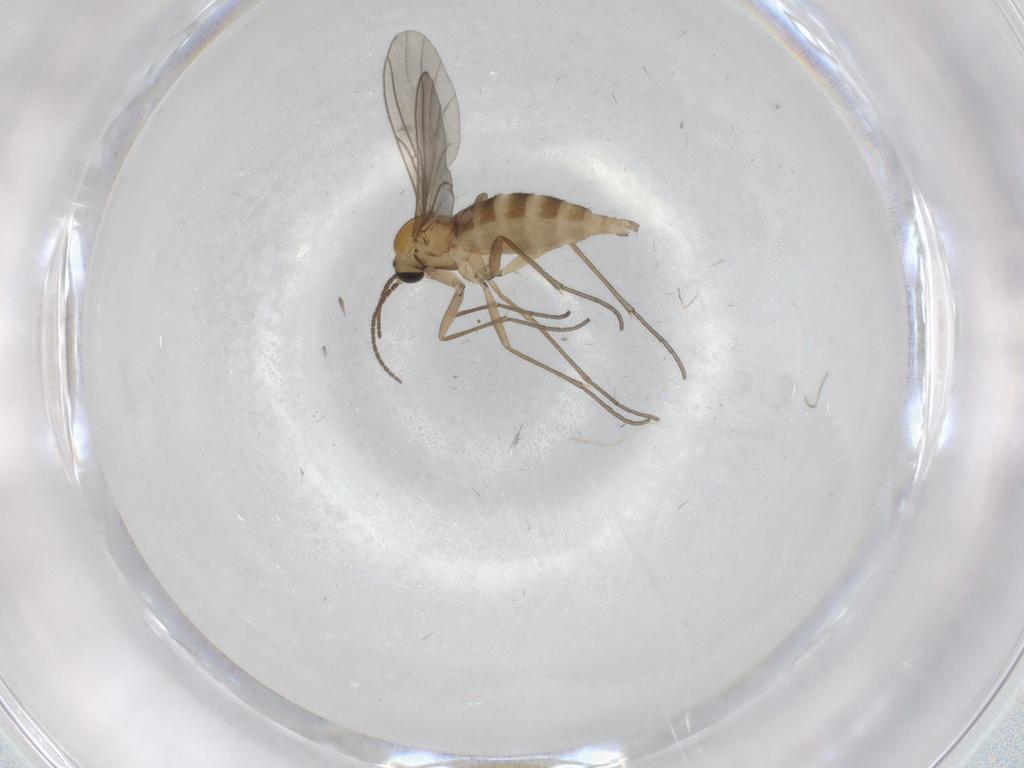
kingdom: Animalia
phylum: Arthropoda
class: Insecta
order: Diptera
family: Sciaridae
